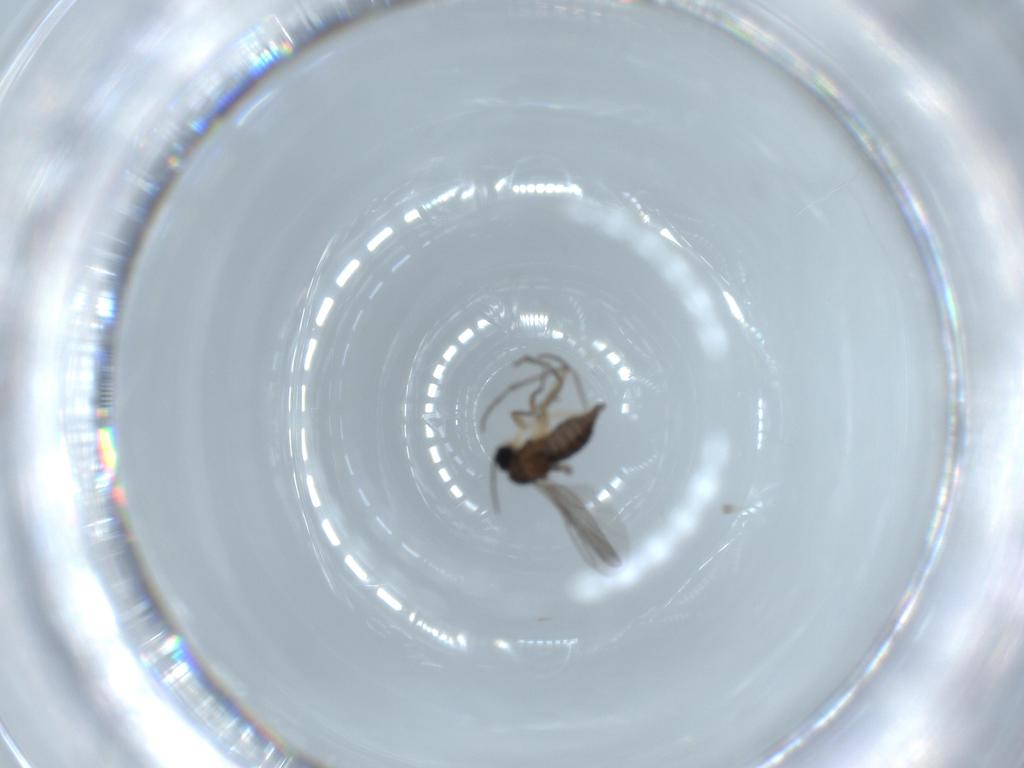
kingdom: Animalia
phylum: Arthropoda
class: Insecta
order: Diptera
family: Sciaridae
